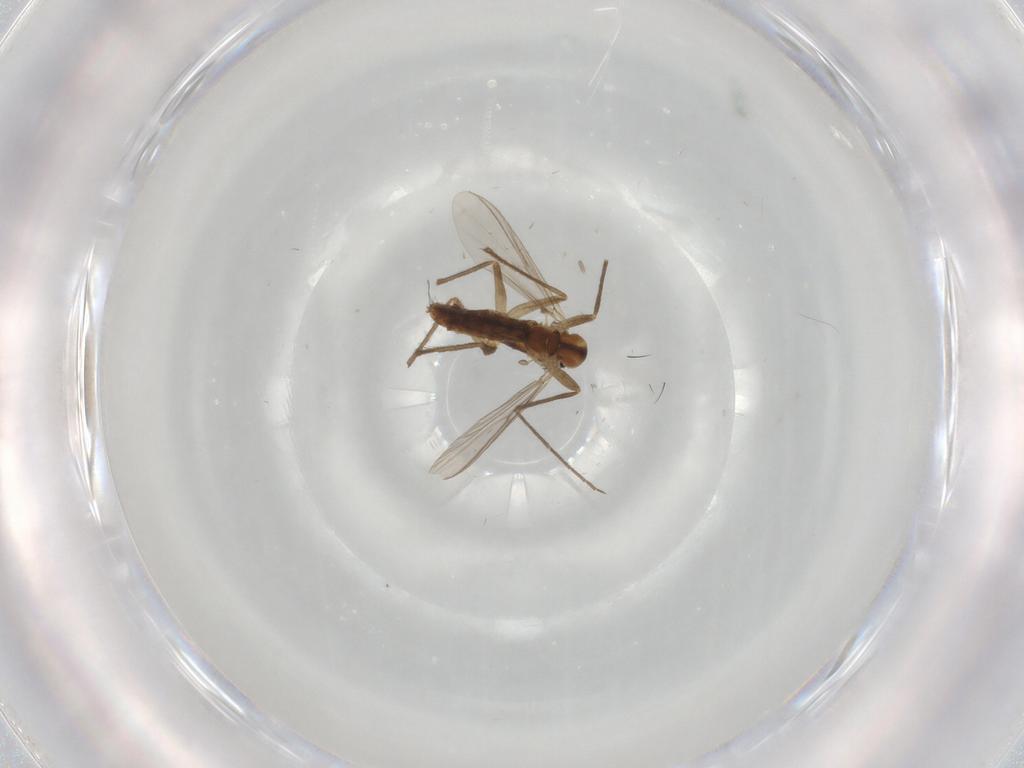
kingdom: Animalia
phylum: Arthropoda
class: Insecta
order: Diptera
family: Chironomidae
